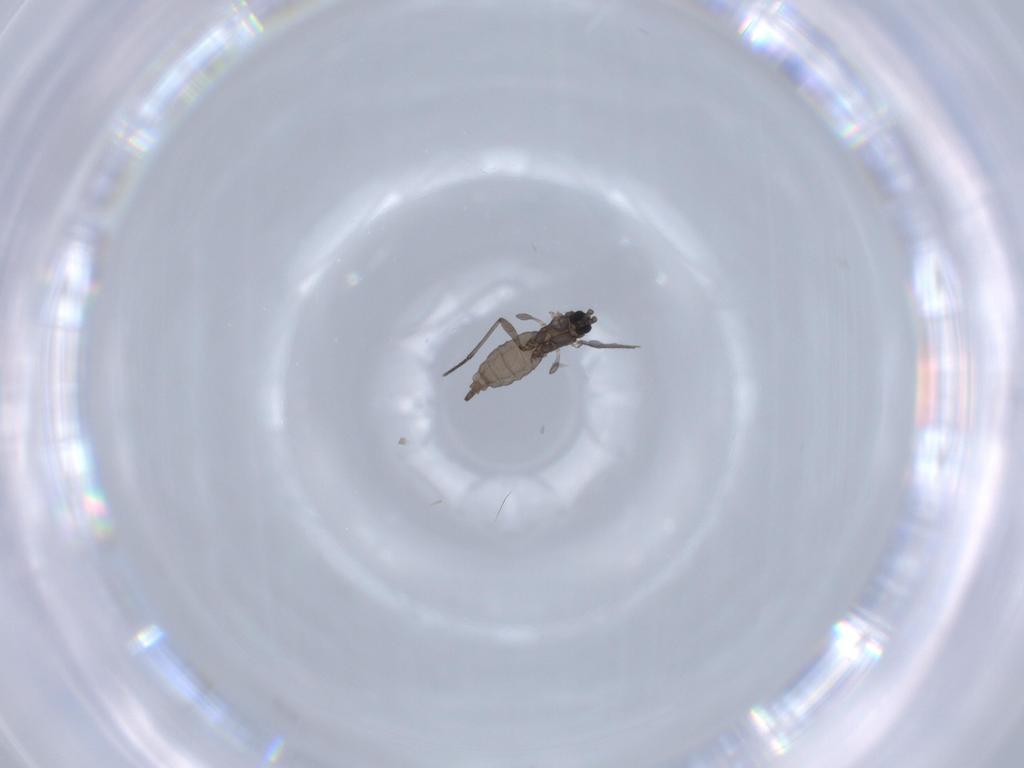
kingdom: Animalia
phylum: Arthropoda
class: Insecta
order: Diptera
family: Sciaridae
